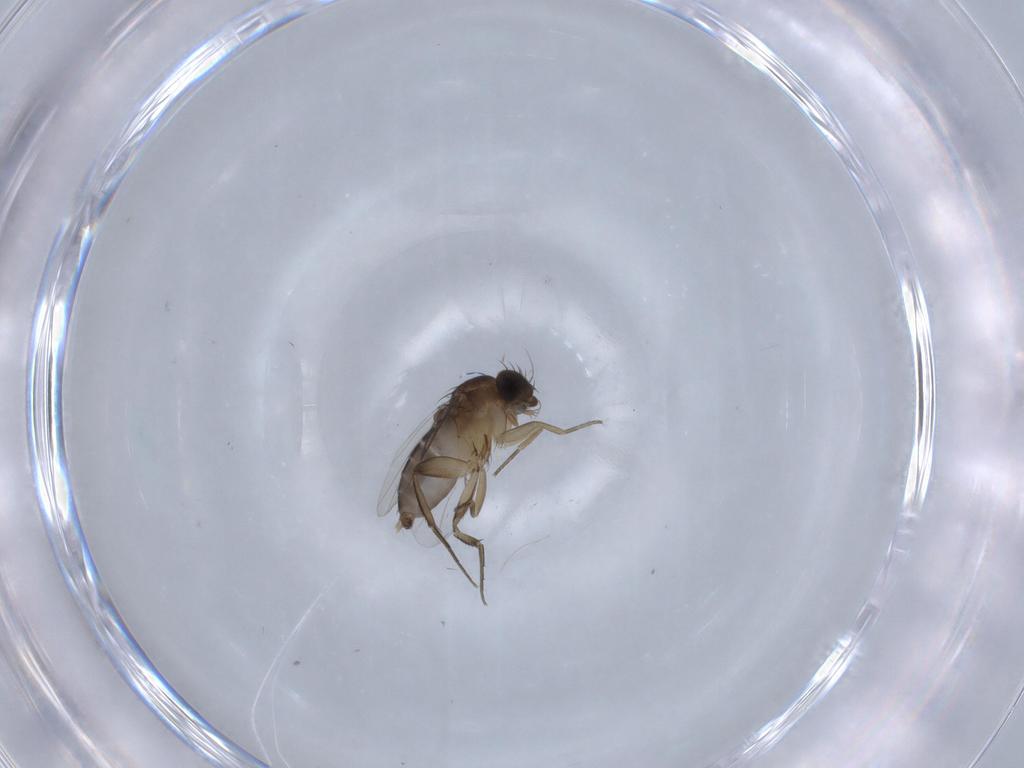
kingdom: Animalia
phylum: Arthropoda
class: Insecta
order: Diptera
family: Phoridae
